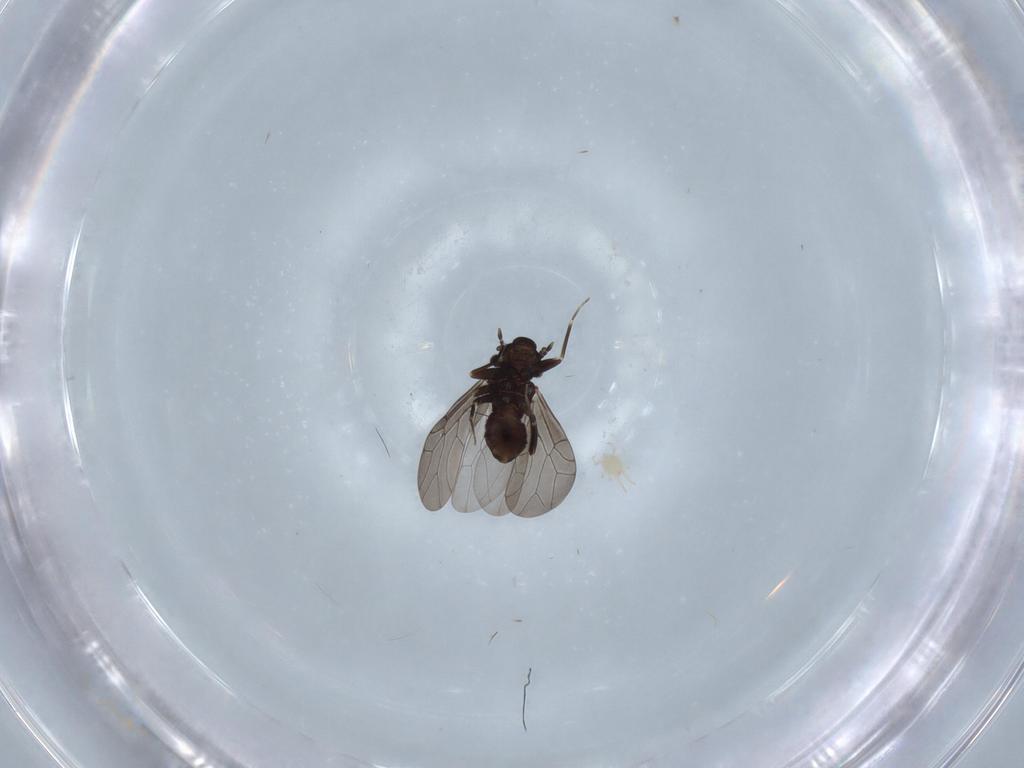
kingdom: Animalia
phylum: Arthropoda
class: Insecta
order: Psocodea
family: Lepidopsocidae
